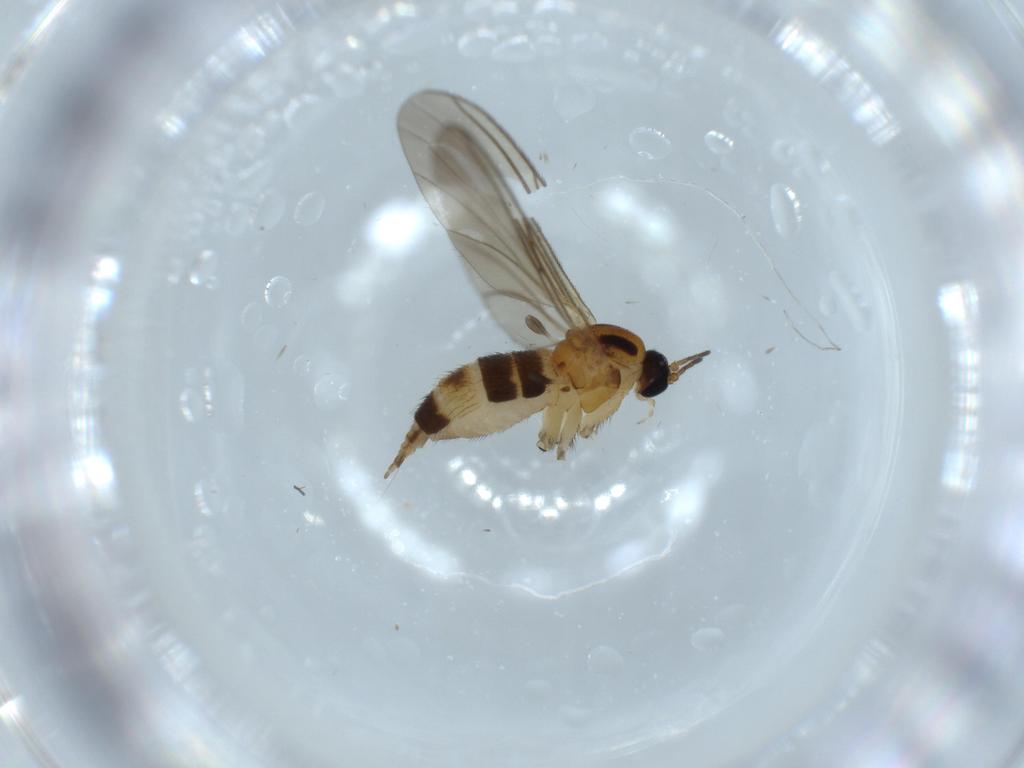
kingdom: Animalia
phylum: Arthropoda
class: Insecta
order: Diptera
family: Sciaridae
